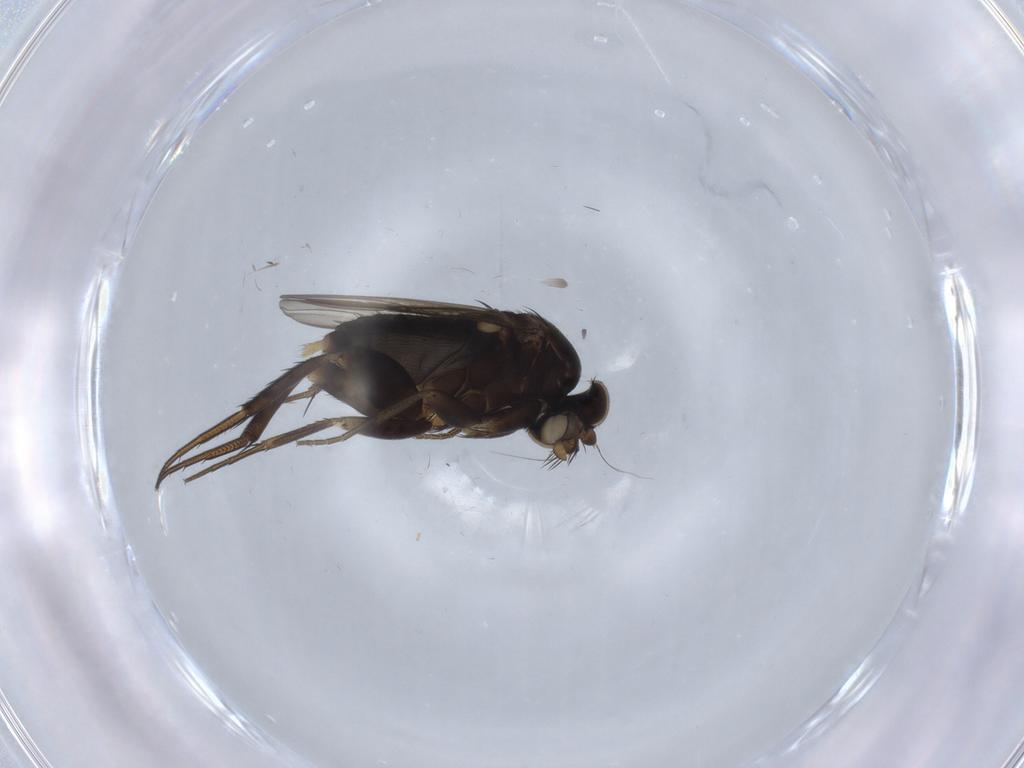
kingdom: Animalia
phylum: Arthropoda
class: Insecta
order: Diptera
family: Phoridae
